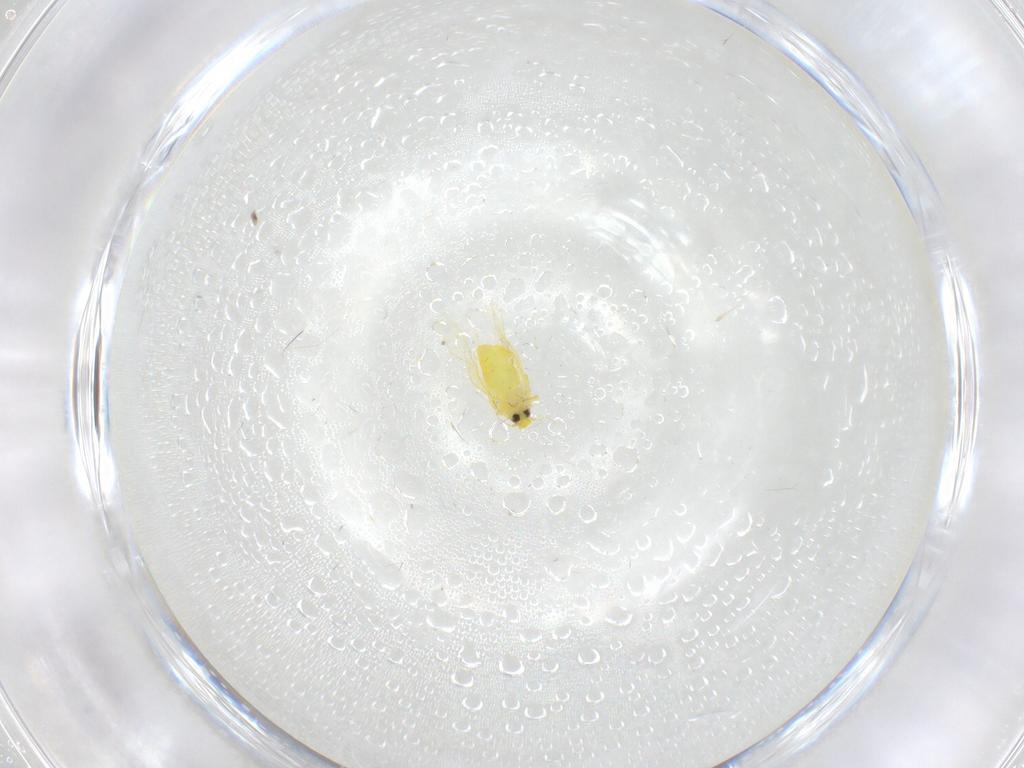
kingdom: Animalia
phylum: Arthropoda
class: Insecta
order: Hemiptera
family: Aleyrodidae
